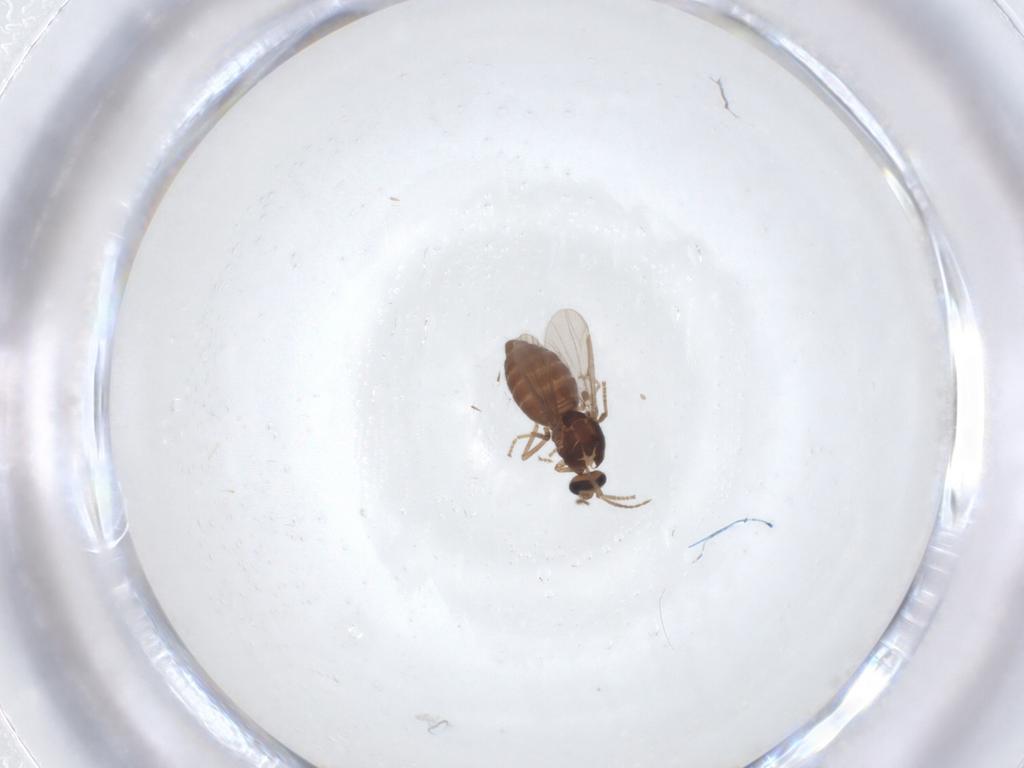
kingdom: Animalia
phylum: Arthropoda
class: Insecta
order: Diptera
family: Ceratopogonidae
